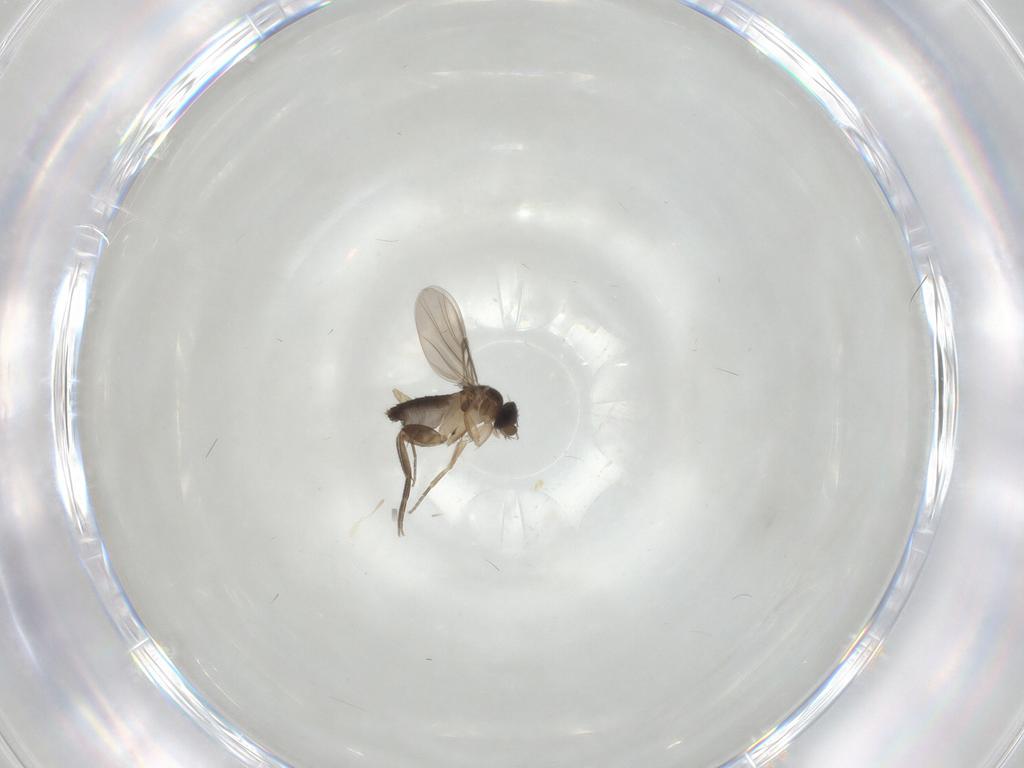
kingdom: Animalia
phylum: Arthropoda
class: Insecta
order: Diptera
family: Phoridae
